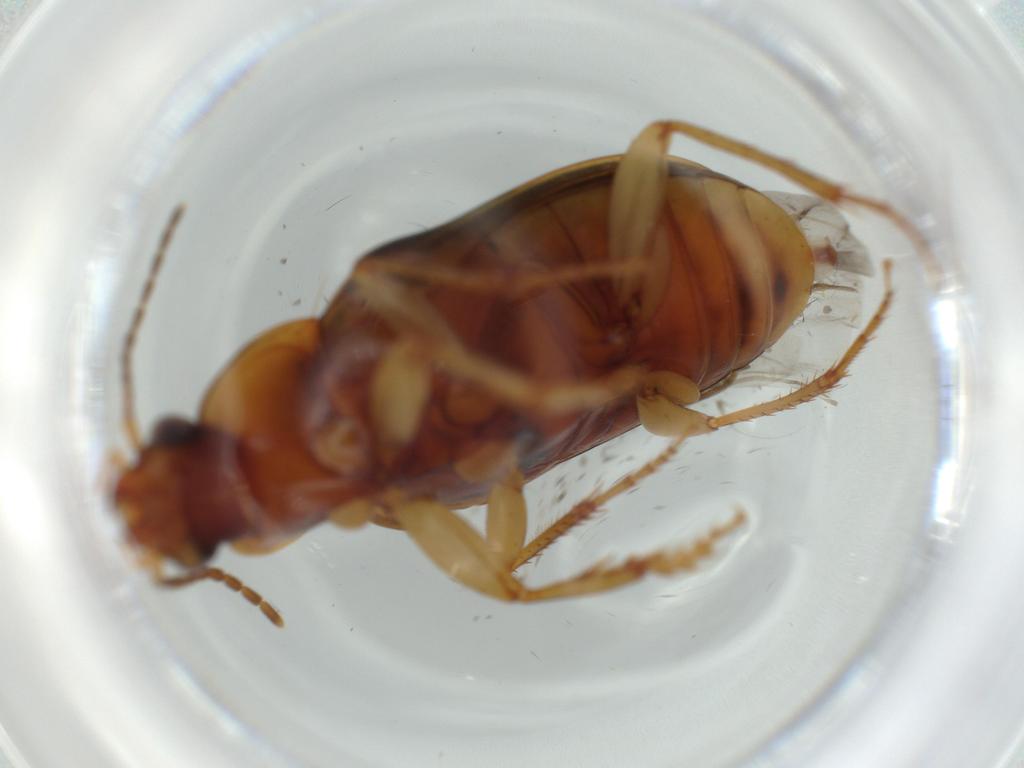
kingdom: Animalia
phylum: Arthropoda
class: Insecta
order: Coleoptera
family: Carabidae
